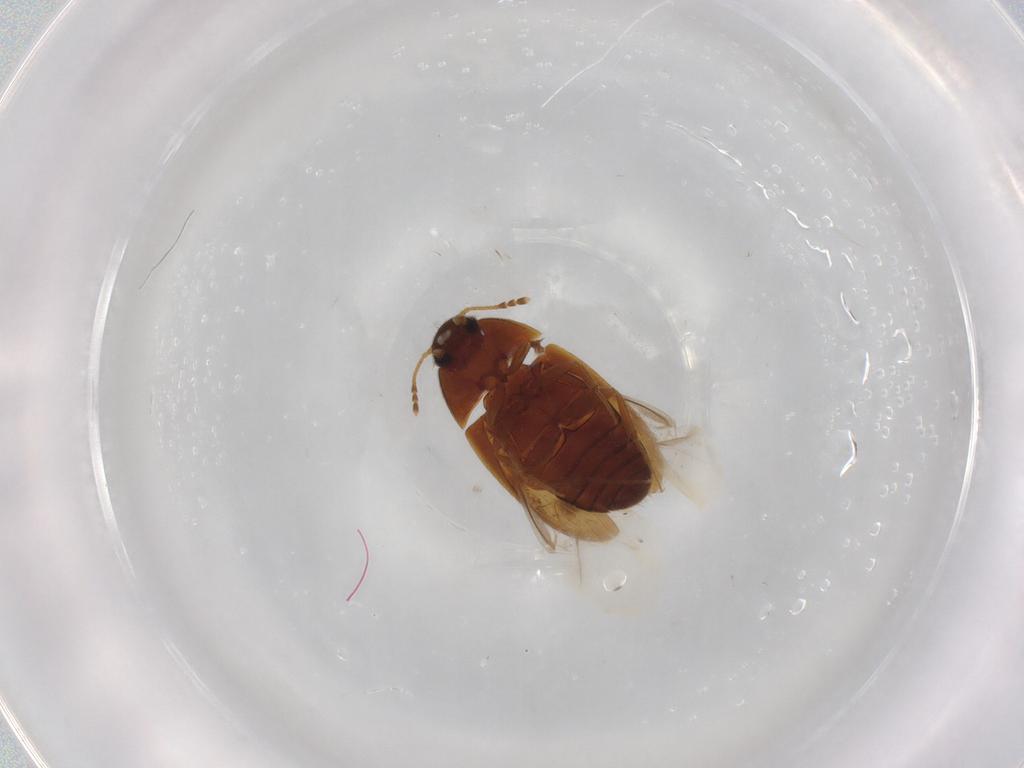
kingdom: Animalia
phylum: Arthropoda
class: Insecta
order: Coleoptera
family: Mycetophagidae
